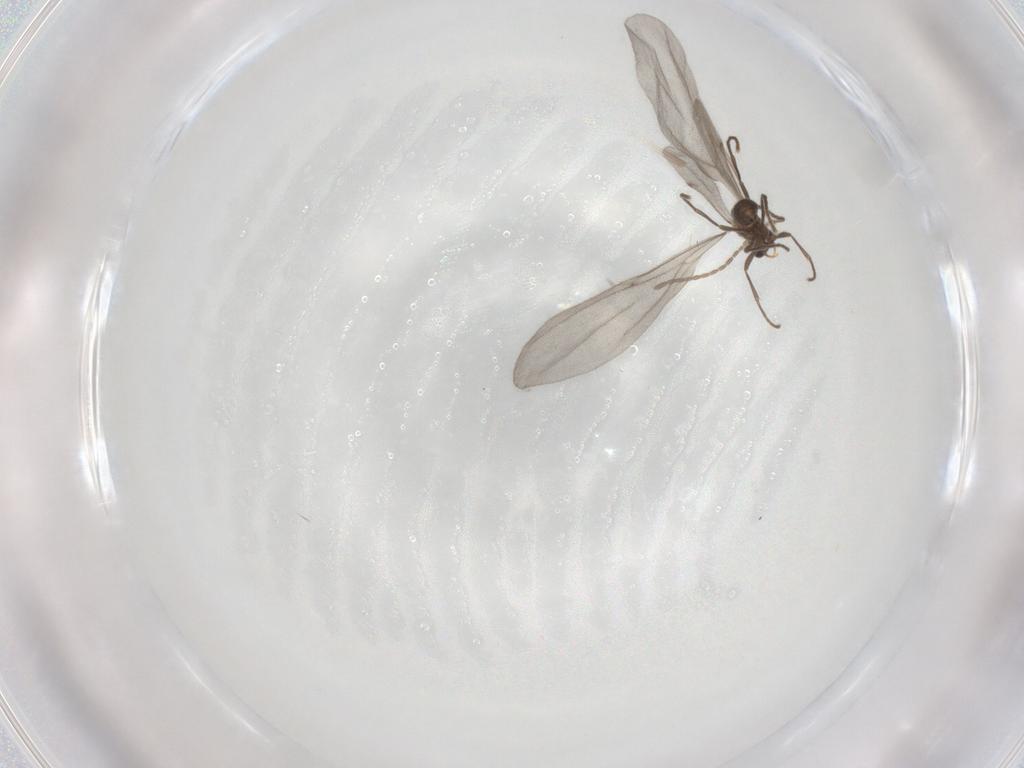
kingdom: Animalia
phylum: Arthropoda
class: Insecta
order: Hymenoptera
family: Formicidae
